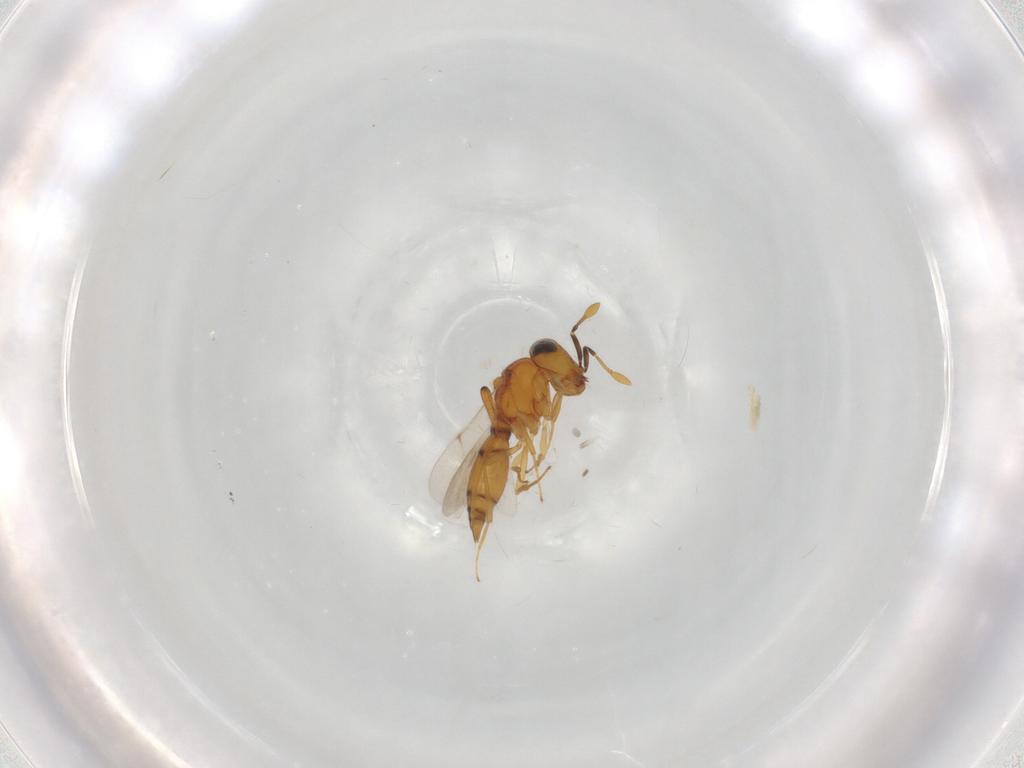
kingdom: Animalia
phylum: Arthropoda
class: Insecta
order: Hymenoptera
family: Scelionidae
